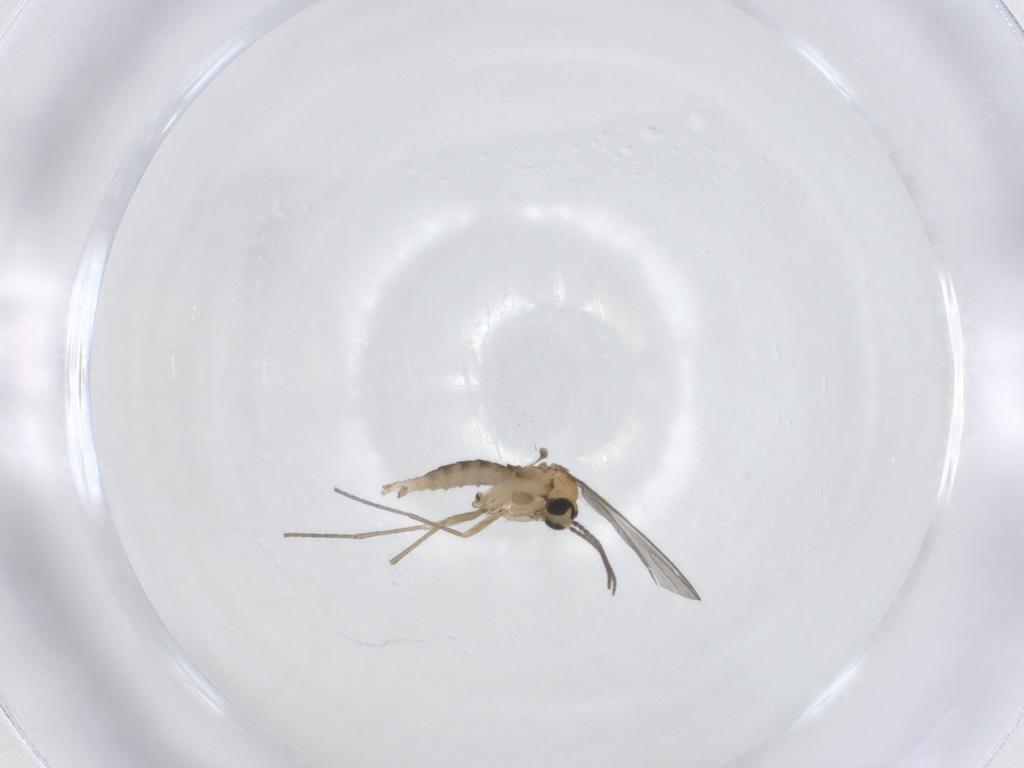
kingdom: Animalia
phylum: Arthropoda
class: Insecta
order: Diptera
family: Sciaridae
